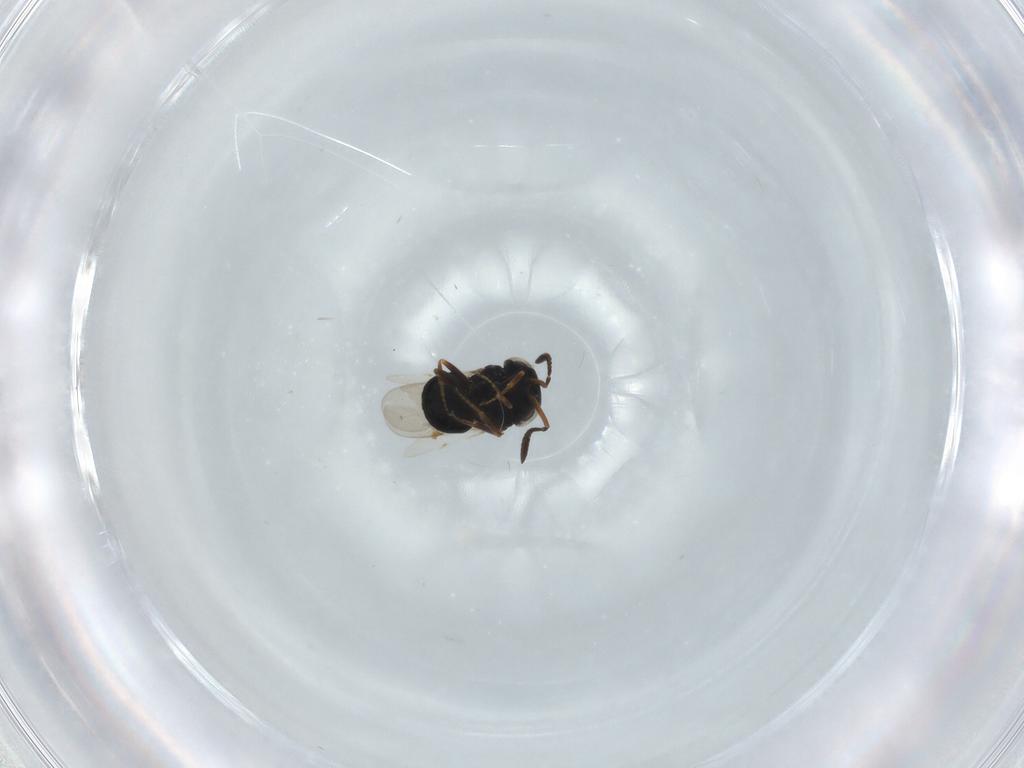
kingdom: Animalia
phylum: Arthropoda
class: Insecta
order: Hymenoptera
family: Scelionidae
